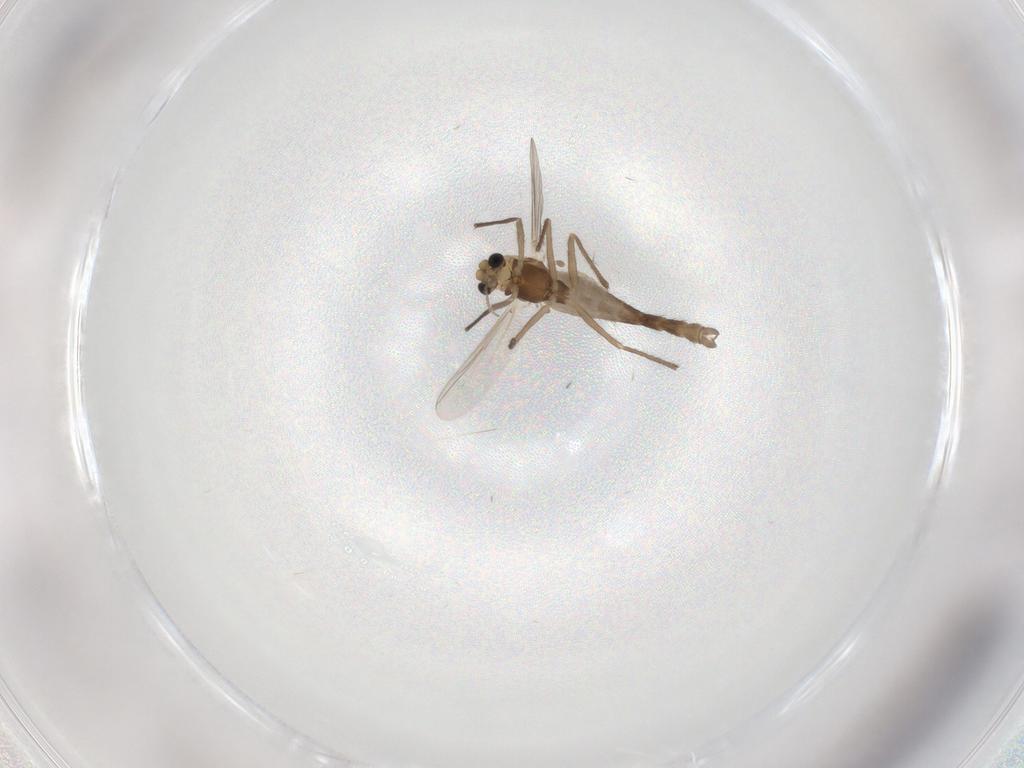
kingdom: Animalia
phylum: Arthropoda
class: Insecta
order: Diptera
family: Chironomidae
